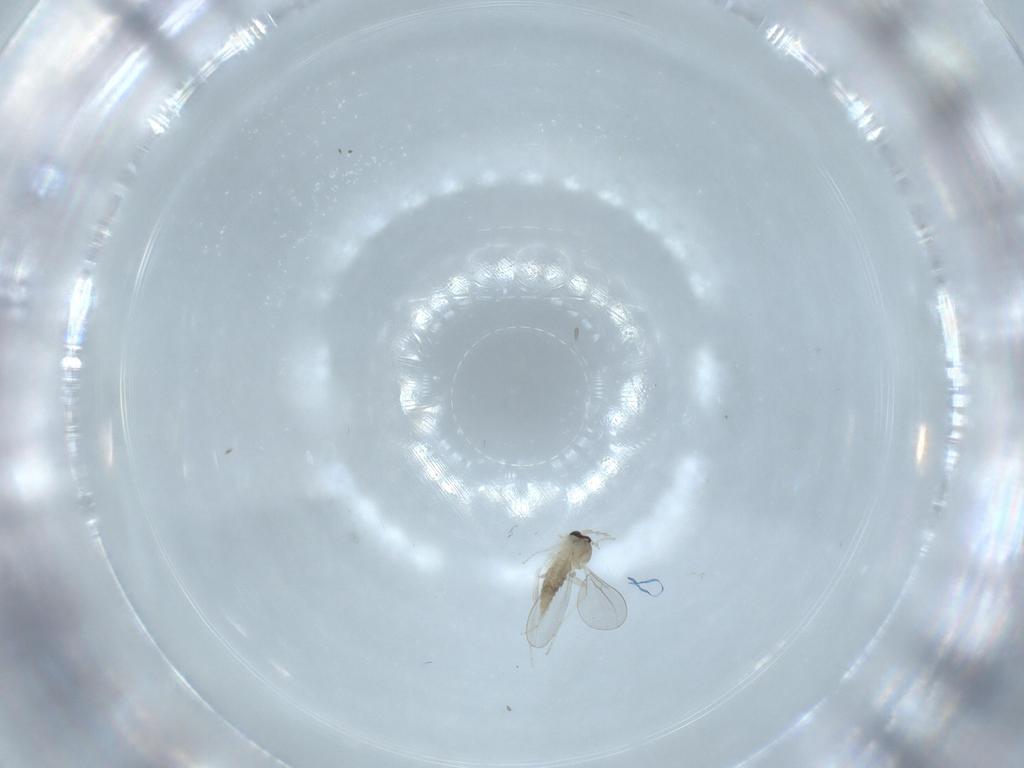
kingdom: Animalia
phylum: Arthropoda
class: Insecta
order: Diptera
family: Cecidomyiidae
